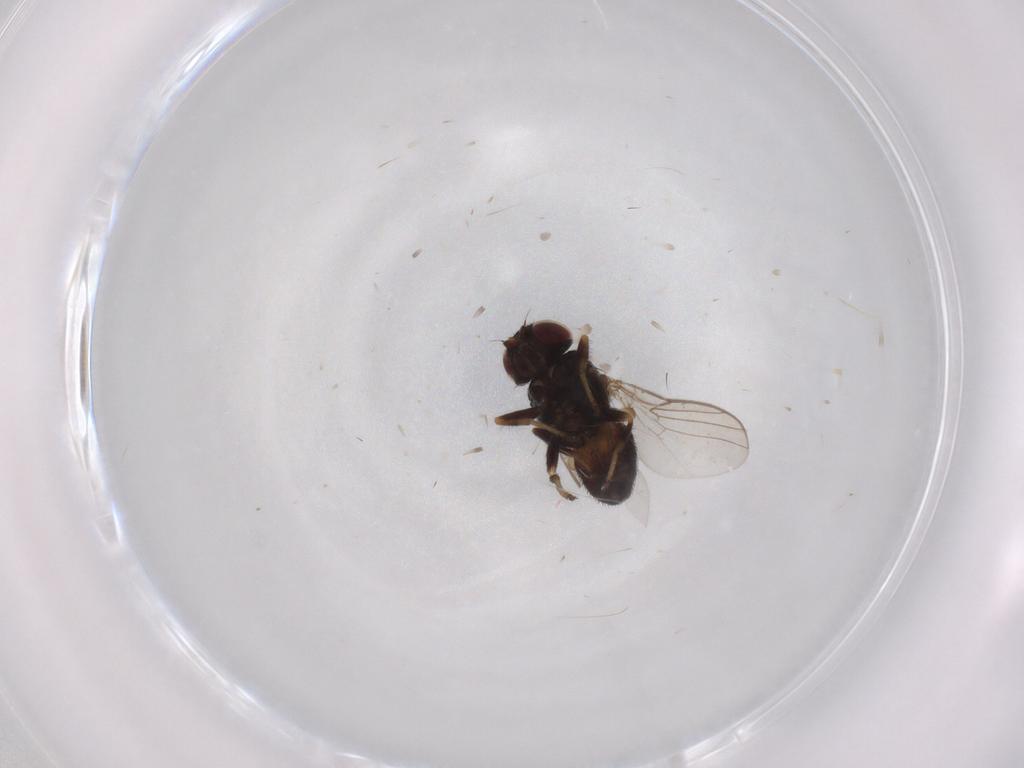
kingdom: Animalia
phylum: Arthropoda
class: Insecta
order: Diptera
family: Chloropidae
